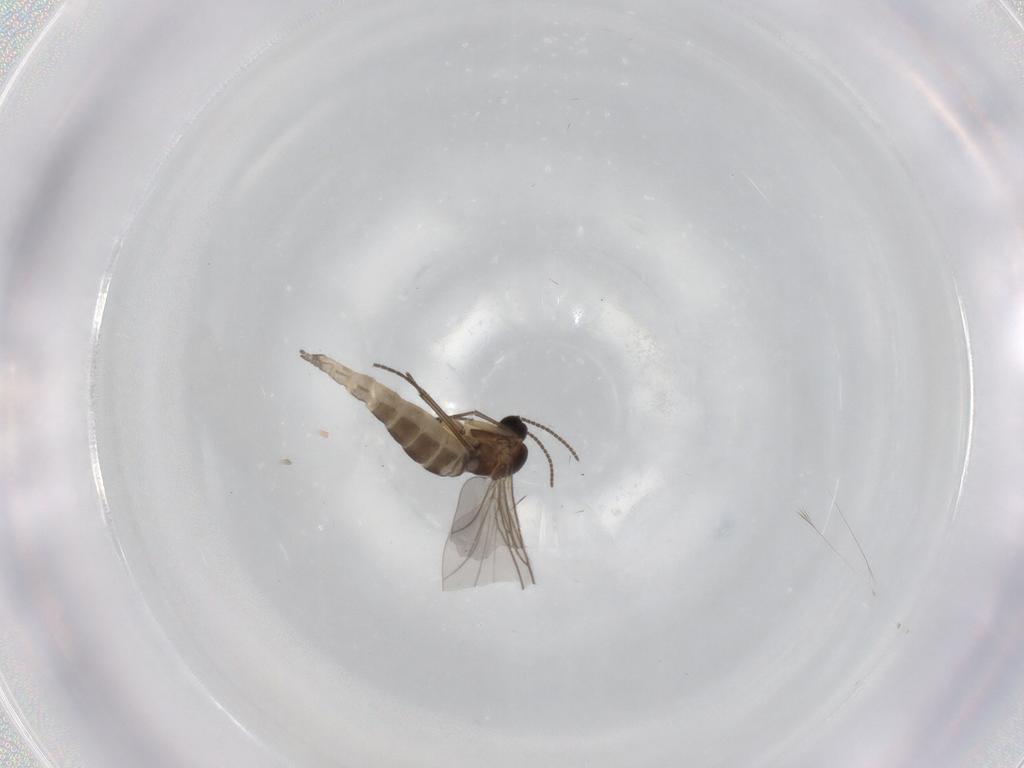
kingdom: Animalia
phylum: Arthropoda
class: Insecta
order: Diptera
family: Sciaridae
